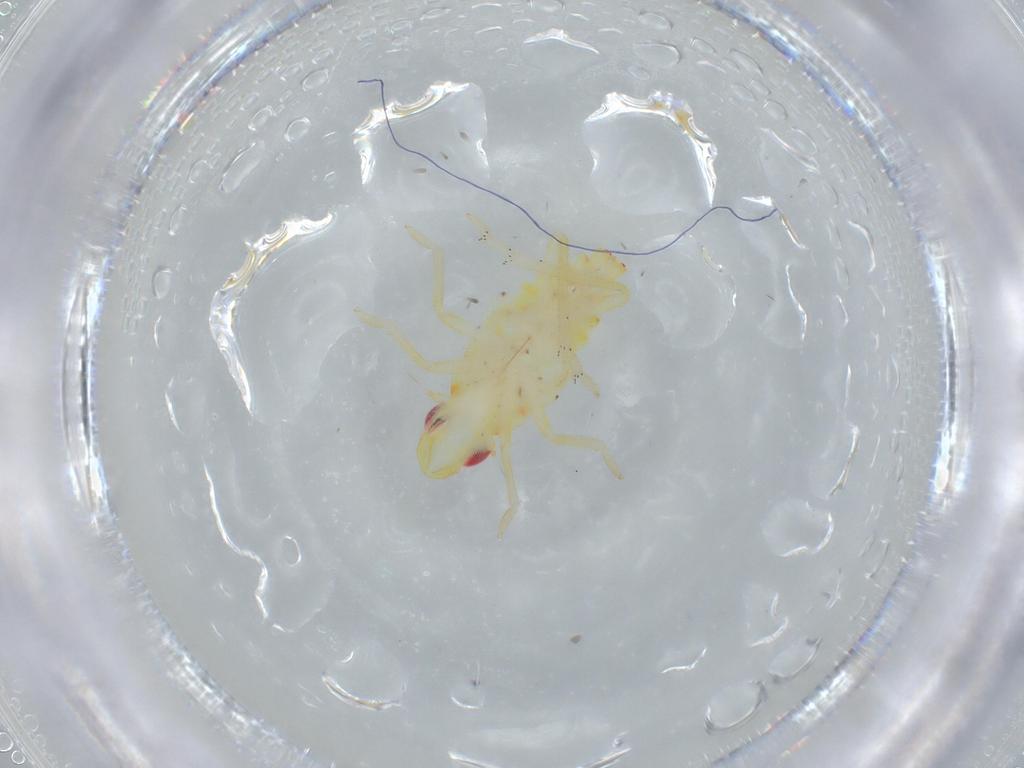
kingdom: Animalia
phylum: Arthropoda
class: Insecta
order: Hemiptera
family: Tropiduchidae
